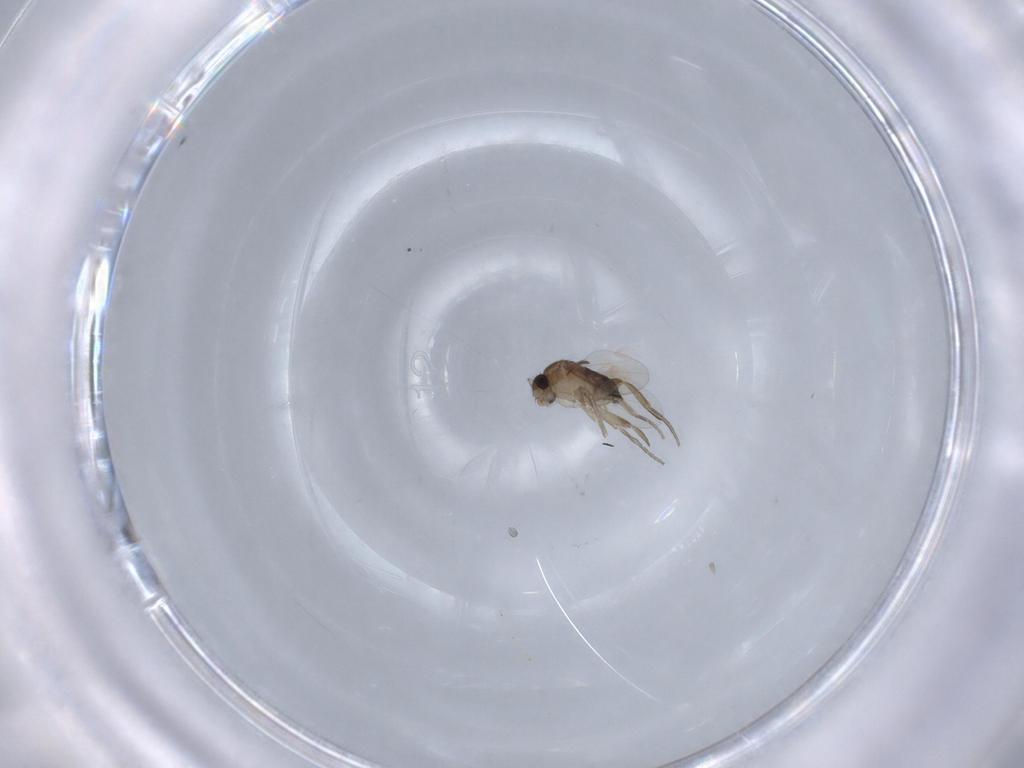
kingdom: Animalia
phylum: Arthropoda
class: Insecta
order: Diptera
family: Phoridae
